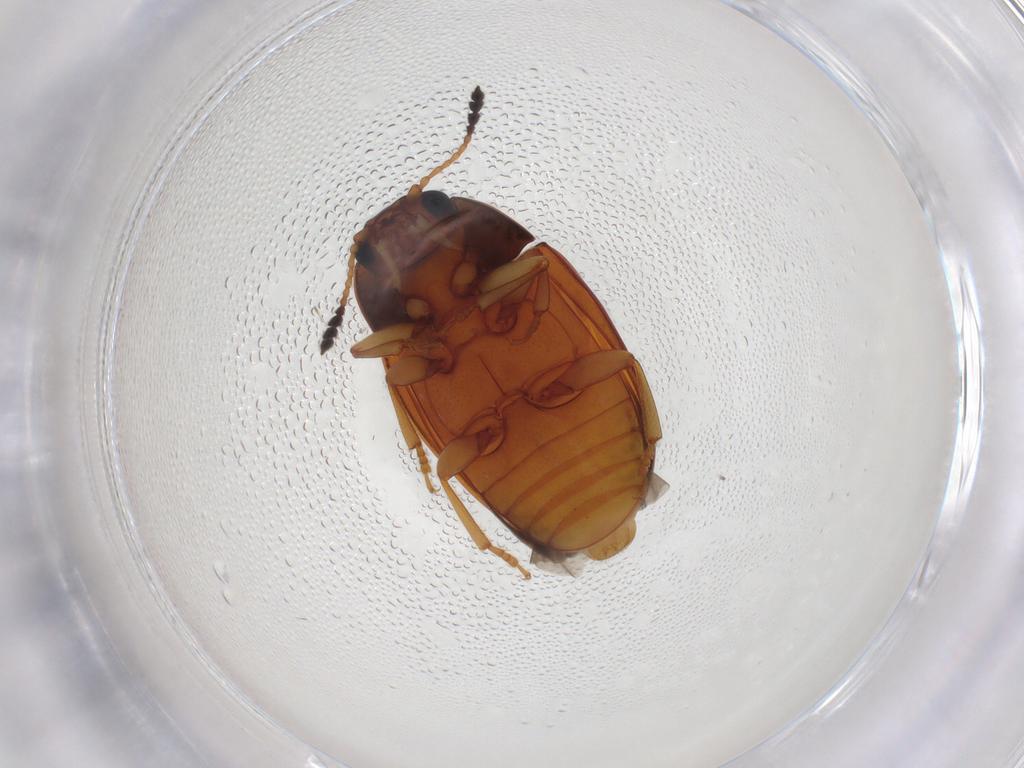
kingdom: Animalia
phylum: Arthropoda
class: Insecta
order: Coleoptera
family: Erotylidae
